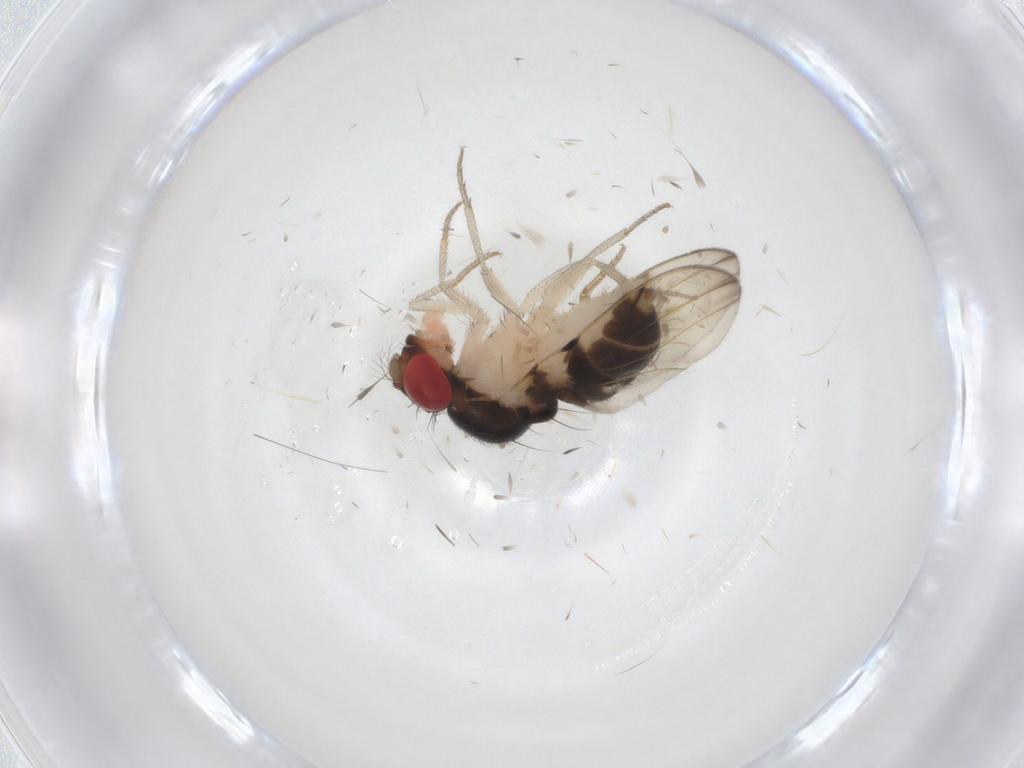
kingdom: Animalia
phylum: Arthropoda
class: Insecta
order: Diptera
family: Drosophilidae
